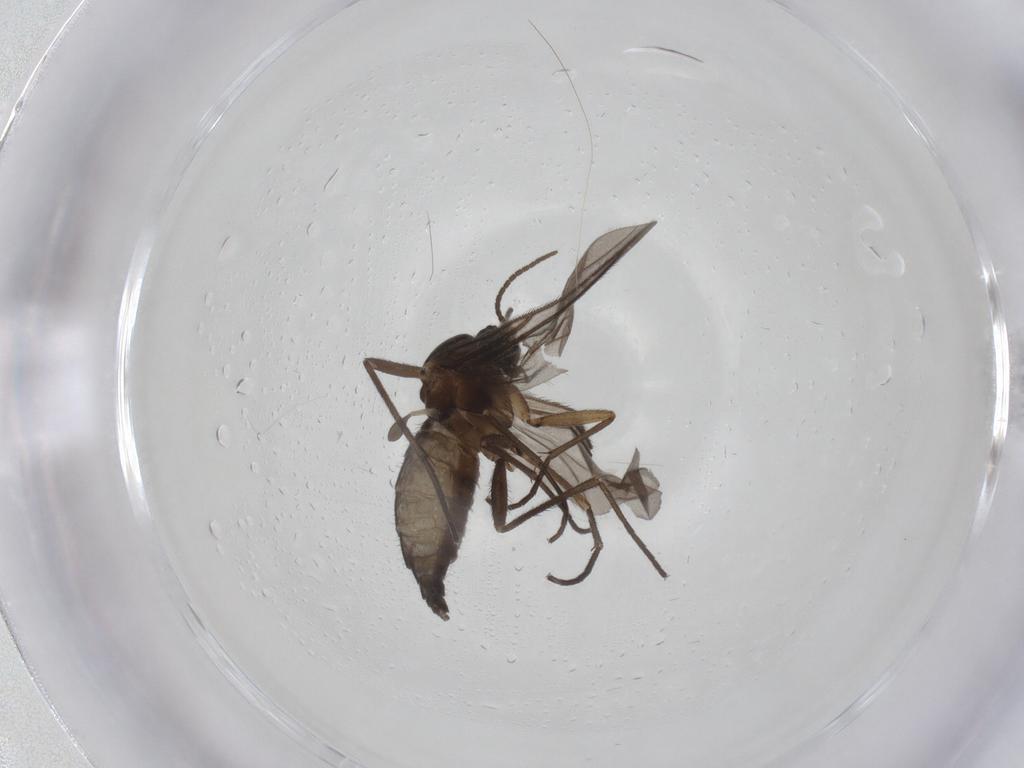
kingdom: Animalia
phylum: Arthropoda
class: Insecta
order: Diptera
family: Sciaridae
